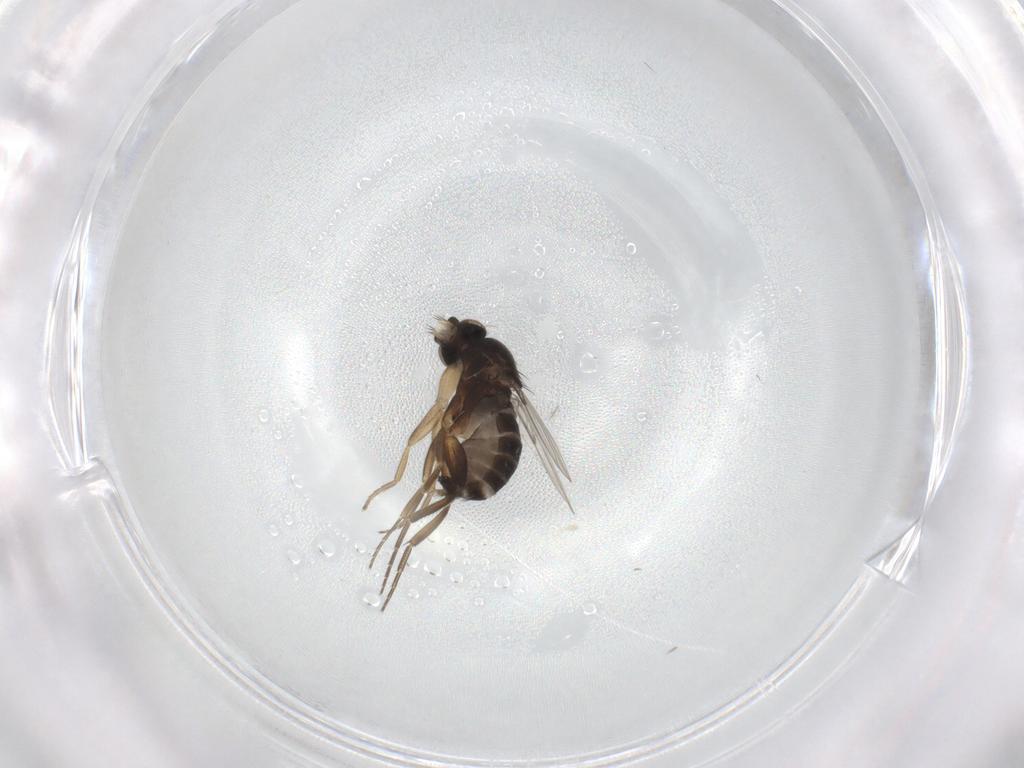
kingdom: Animalia
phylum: Arthropoda
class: Insecta
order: Diptera
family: Phoridae
